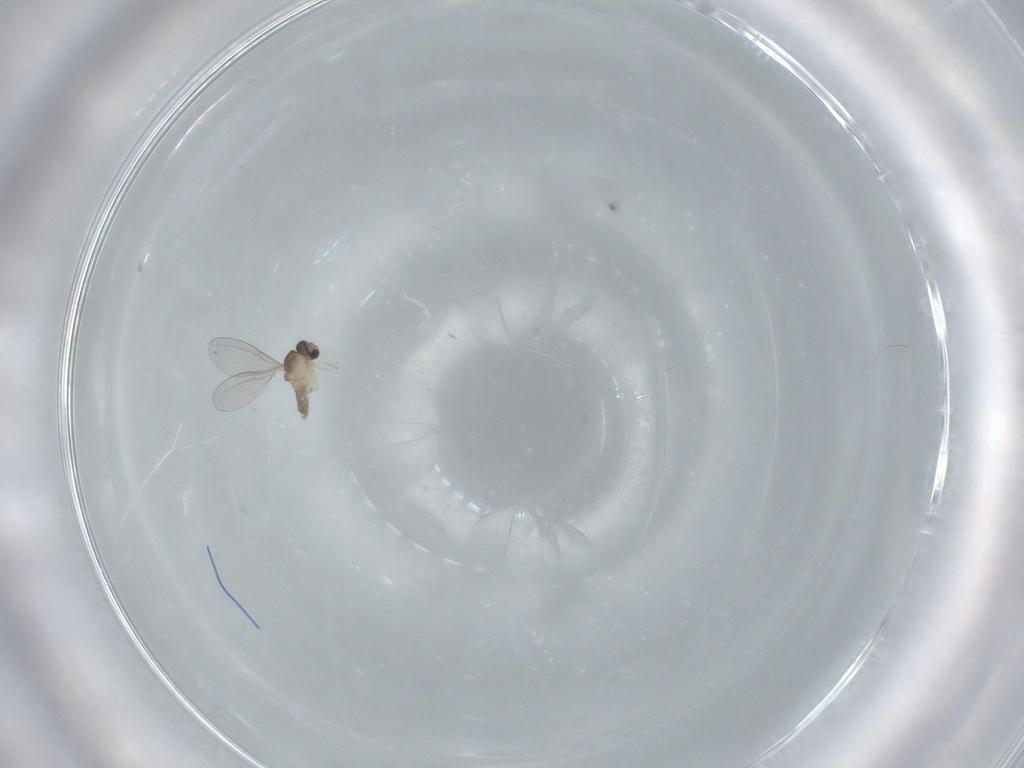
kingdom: Animalia
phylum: Arthropoda
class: Insecta
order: Diptera
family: Cecidomyiidae
